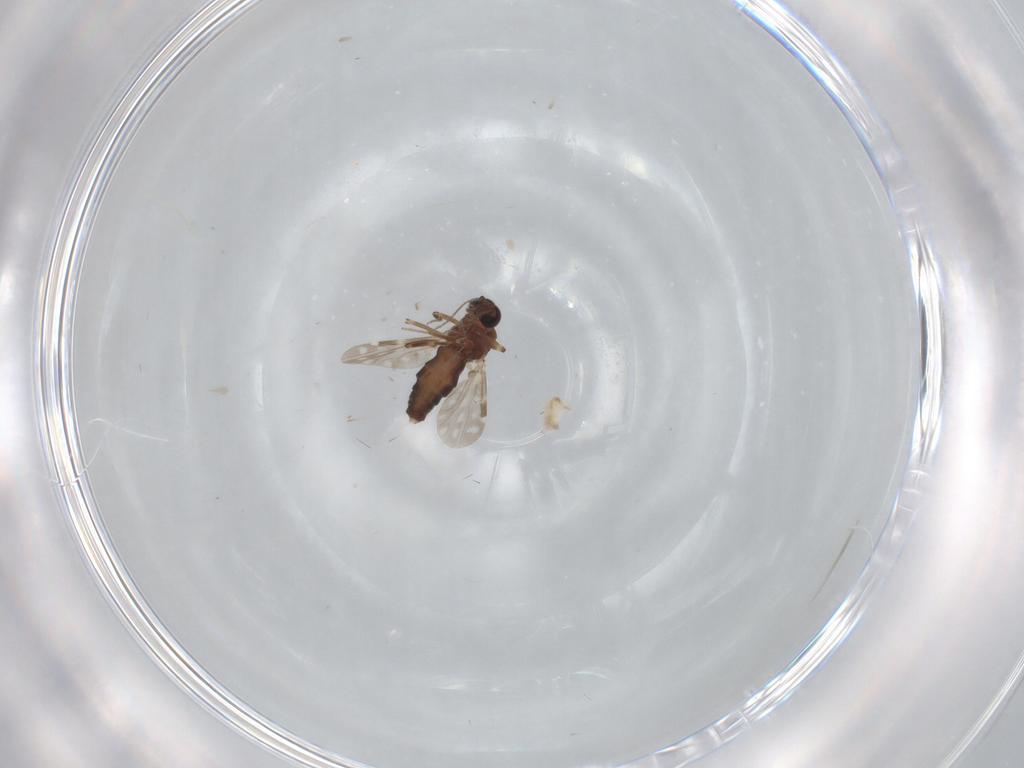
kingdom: Animalia
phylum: Arthropoda
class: Insecta
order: Diptera
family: Ceratopogonidae
